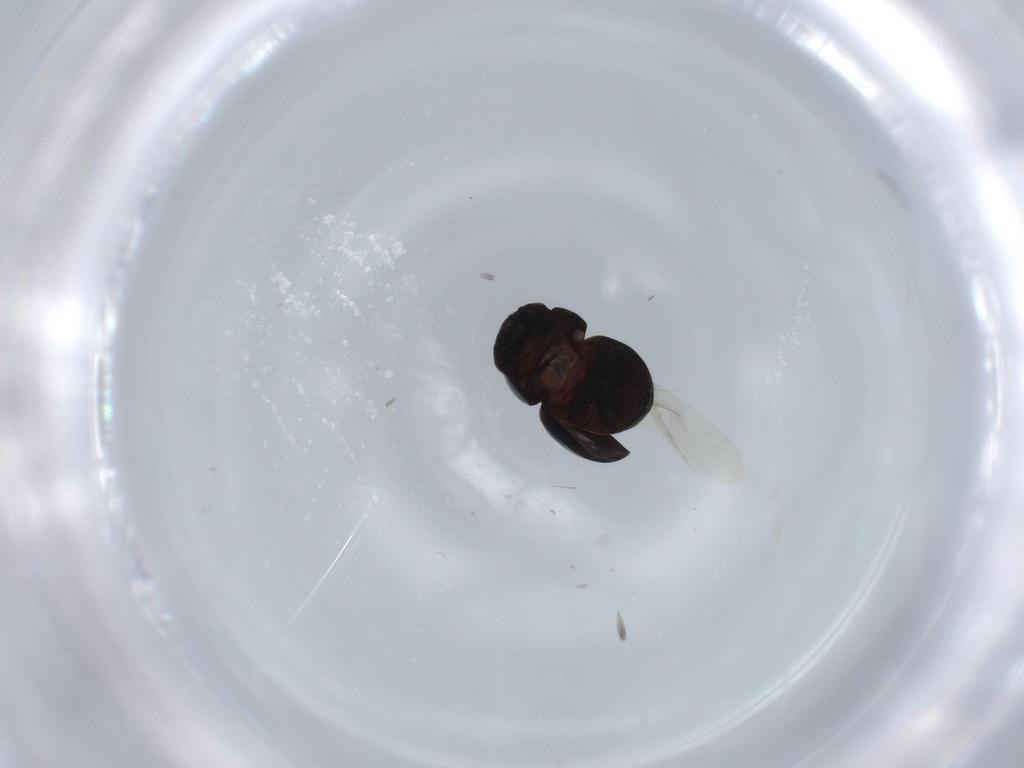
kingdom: Animalia
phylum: Arthropoda
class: Insecta
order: Coleoptera
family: Cybocephalidae
